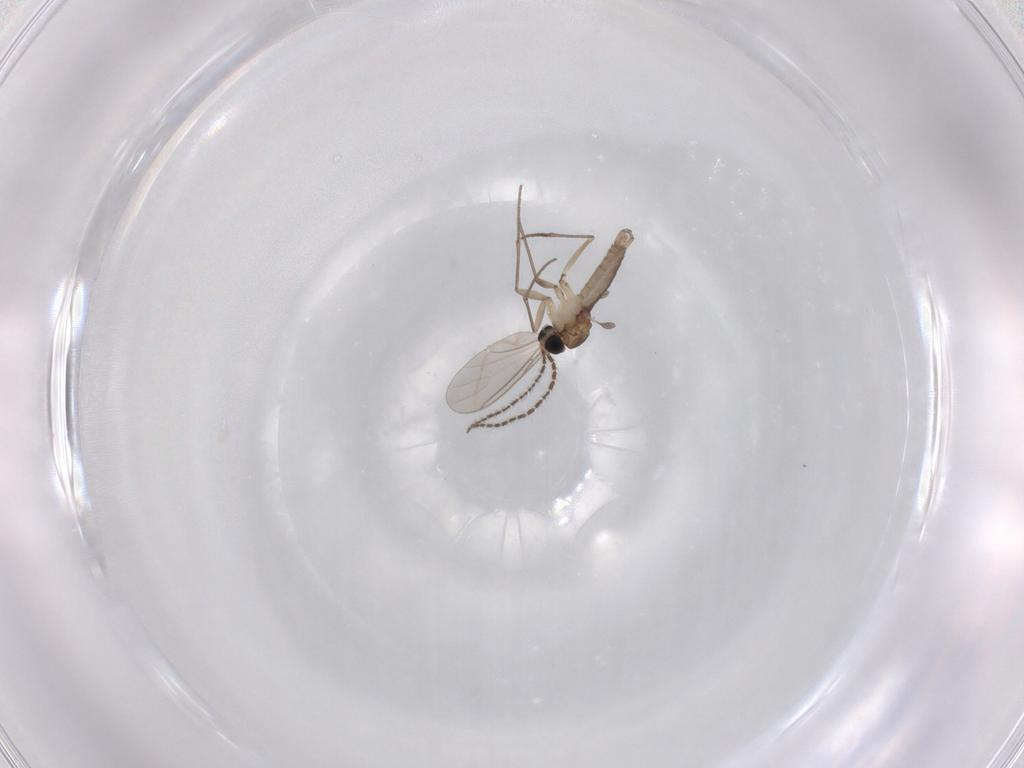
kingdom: Animalia
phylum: Arthropoda
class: Insecta
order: Diptera
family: Sciaridae
